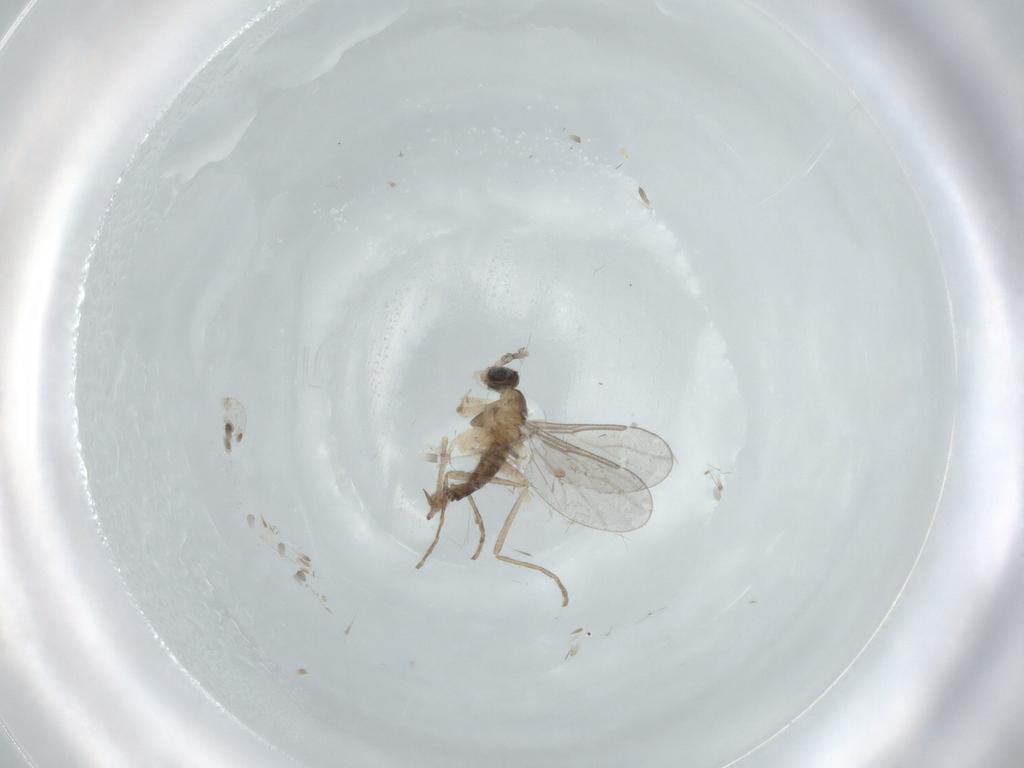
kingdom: Animalia
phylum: Arthropoda
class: Insecta
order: Diptera
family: Cecidomyiidae
